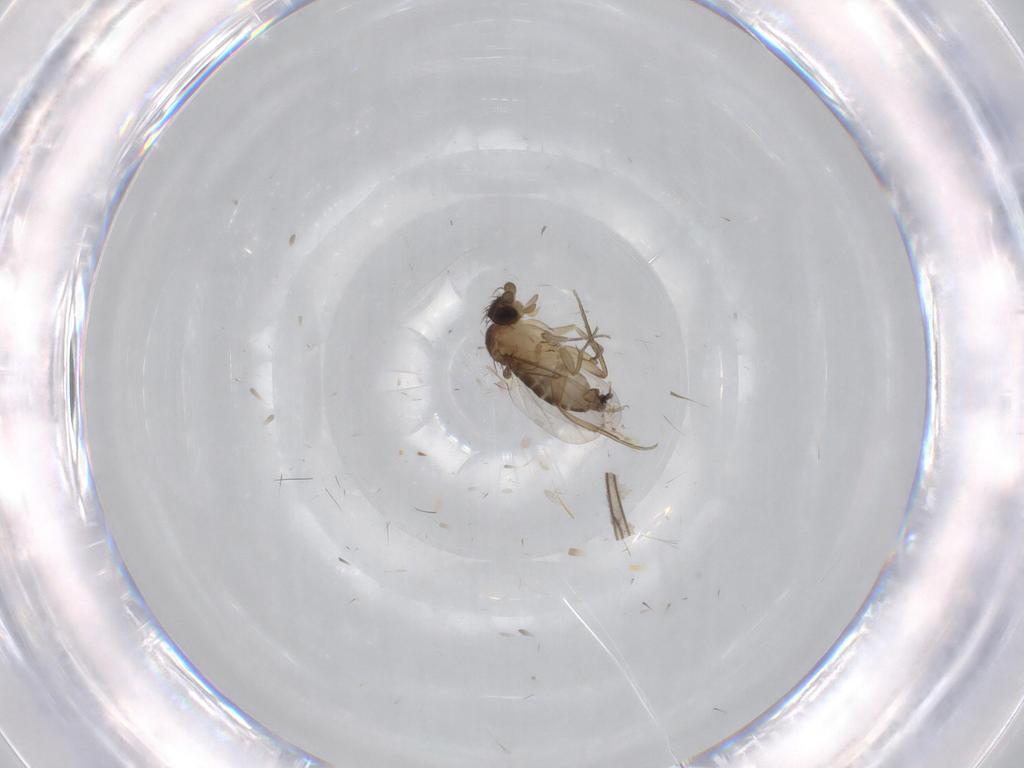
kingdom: Animalia
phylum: Arthropoda
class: Insecta
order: Diptera
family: Phoridae
